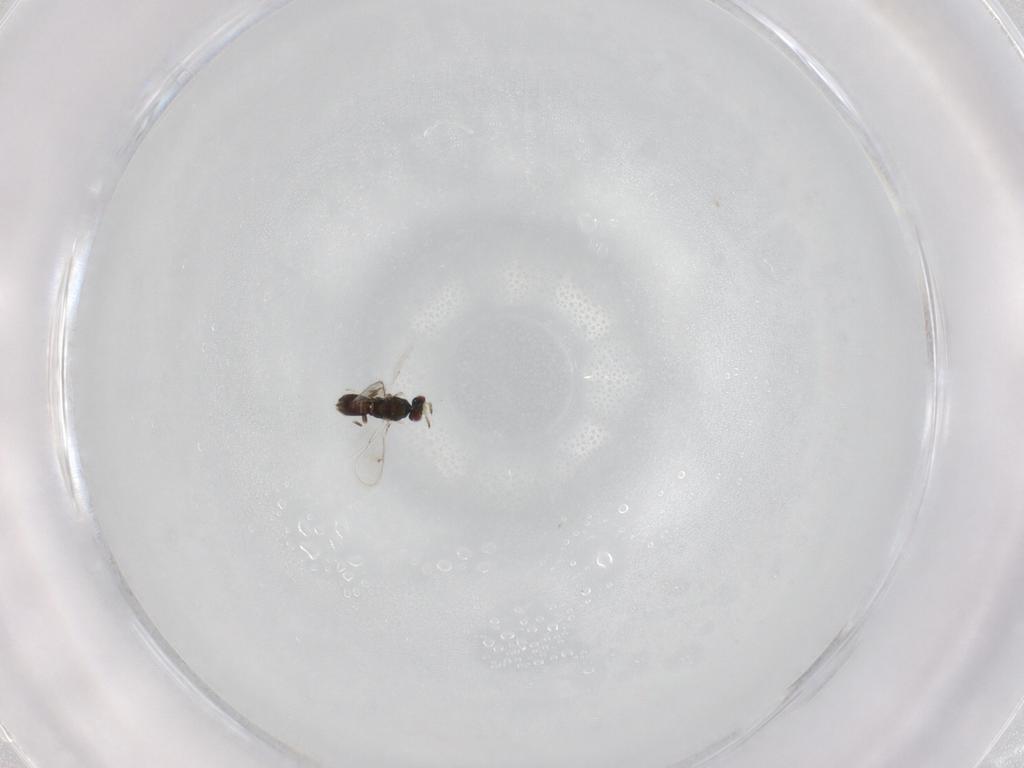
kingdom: Animalia
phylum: Arthropoda
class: Insecta
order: Hymenoptera
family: Eulophidae
